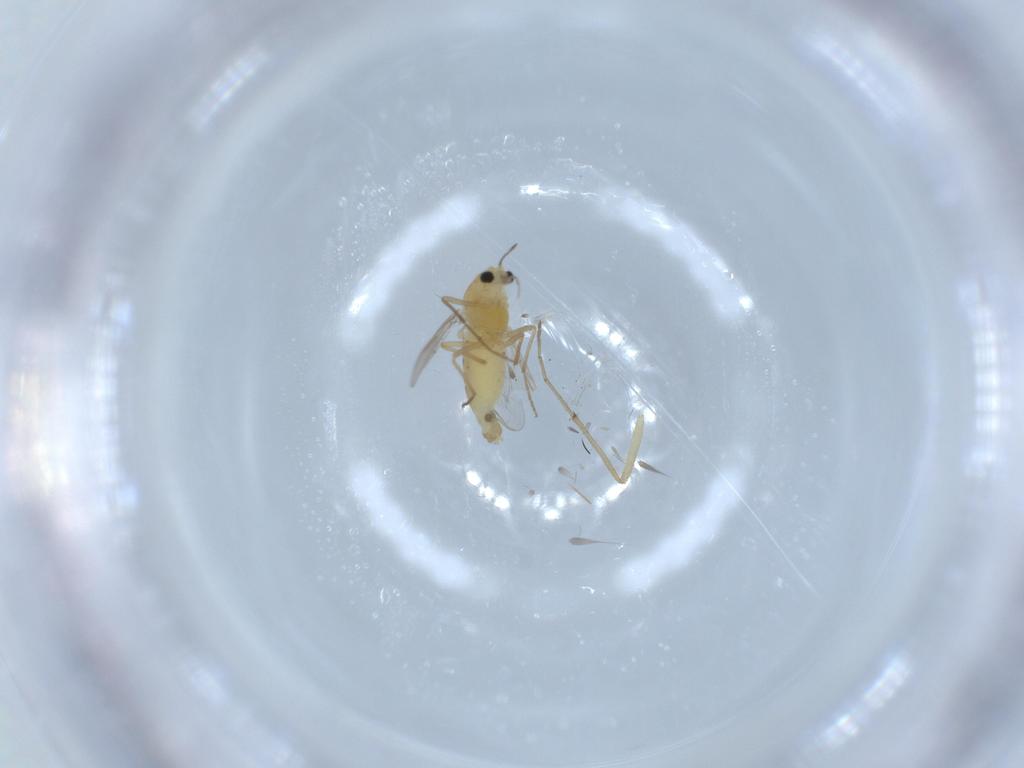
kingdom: Animalia
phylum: Arthropoda
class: Insecta
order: Diptera
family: Chironomidae
